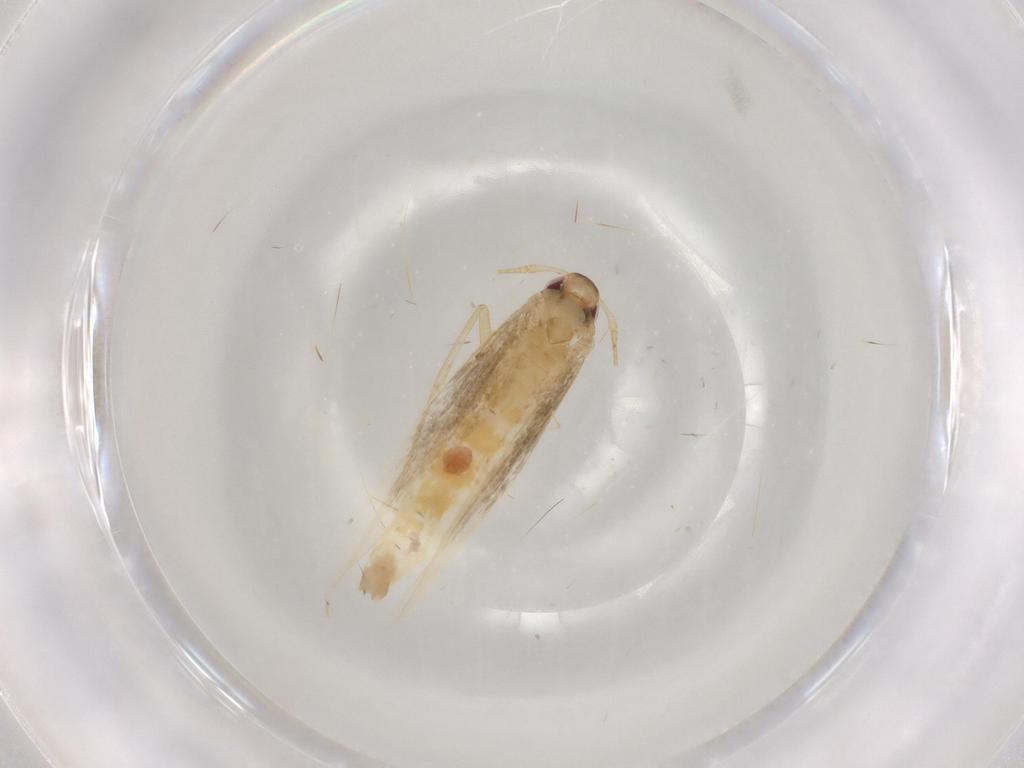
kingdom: Animalia
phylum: Arthropoda
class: Insecta
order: Lepidoptera
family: Cosmopterigidae
